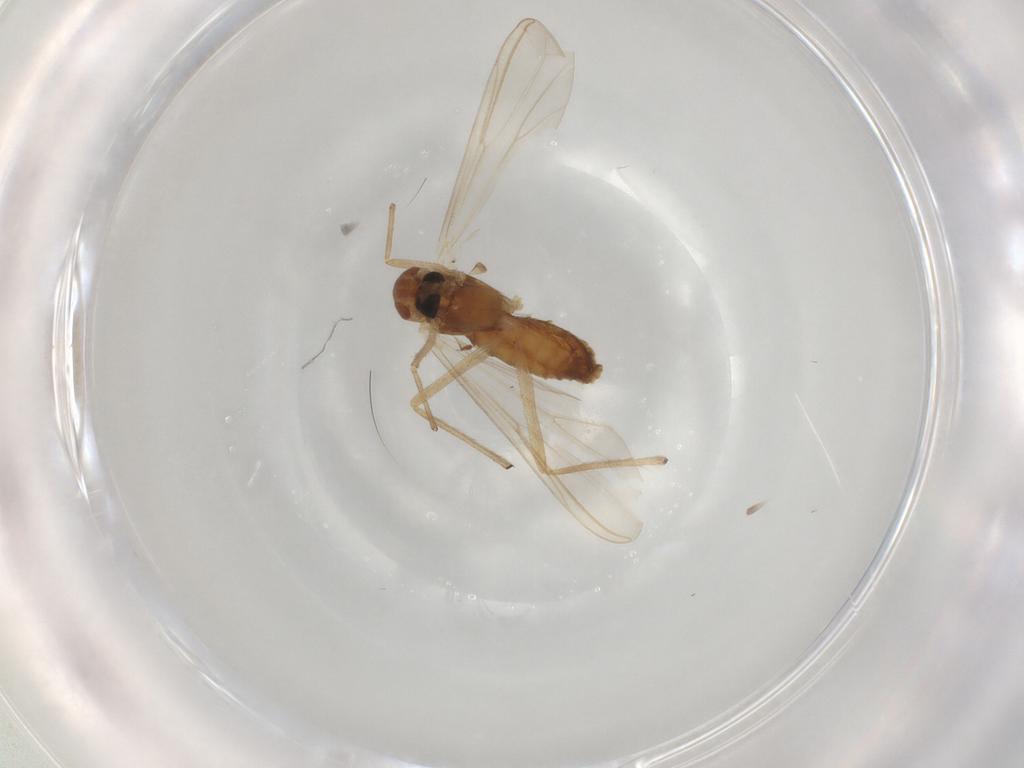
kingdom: Animalia
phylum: Arthropoda
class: Insecta
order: Diptera
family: Chironomidae
